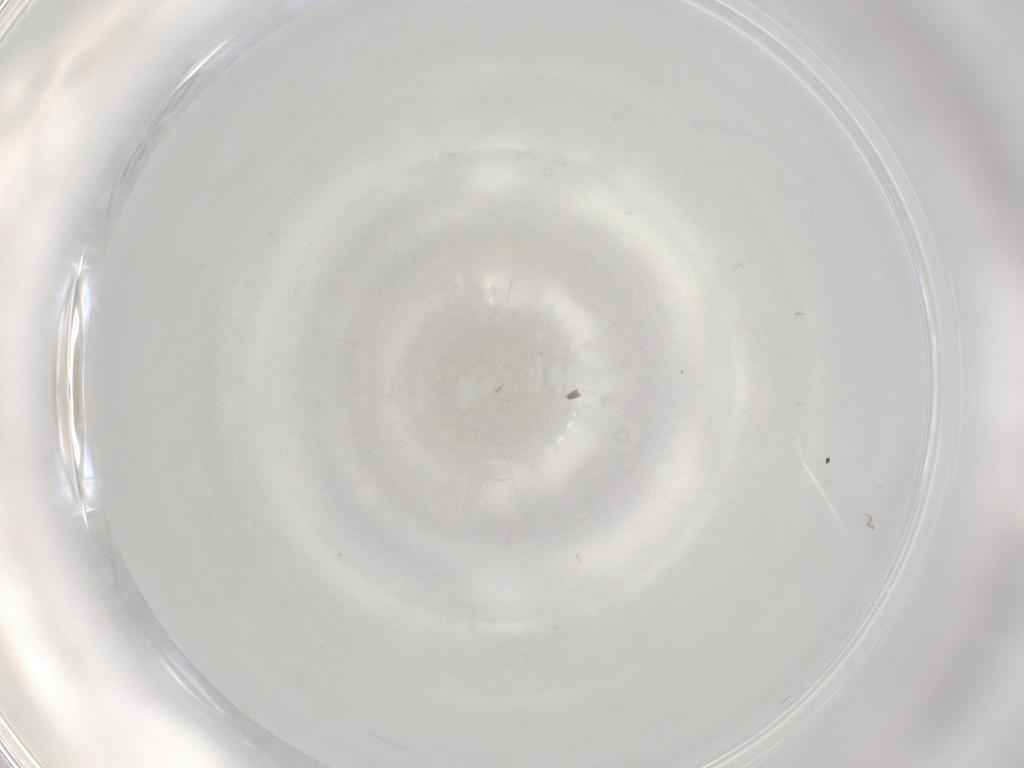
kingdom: Animalia
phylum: Arthropoda
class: Insecta
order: Diptera
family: Cecidomyiidae
